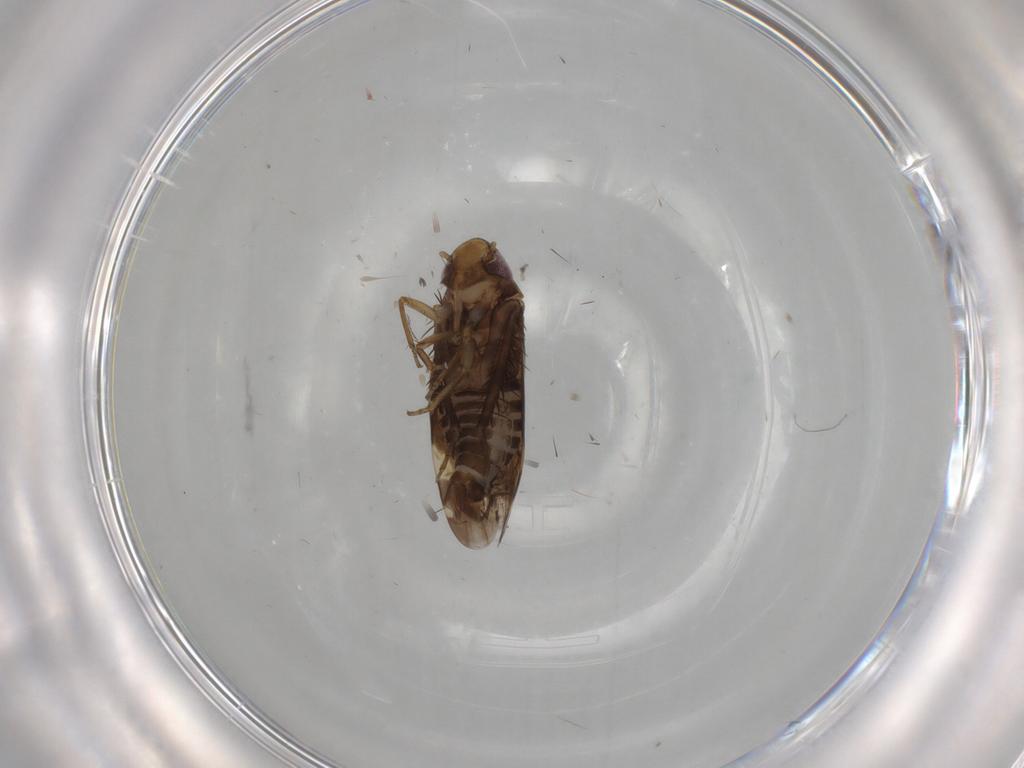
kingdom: Animalia
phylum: Arthropoda
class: Insecta
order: Hemiptera
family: Cicadellidae
